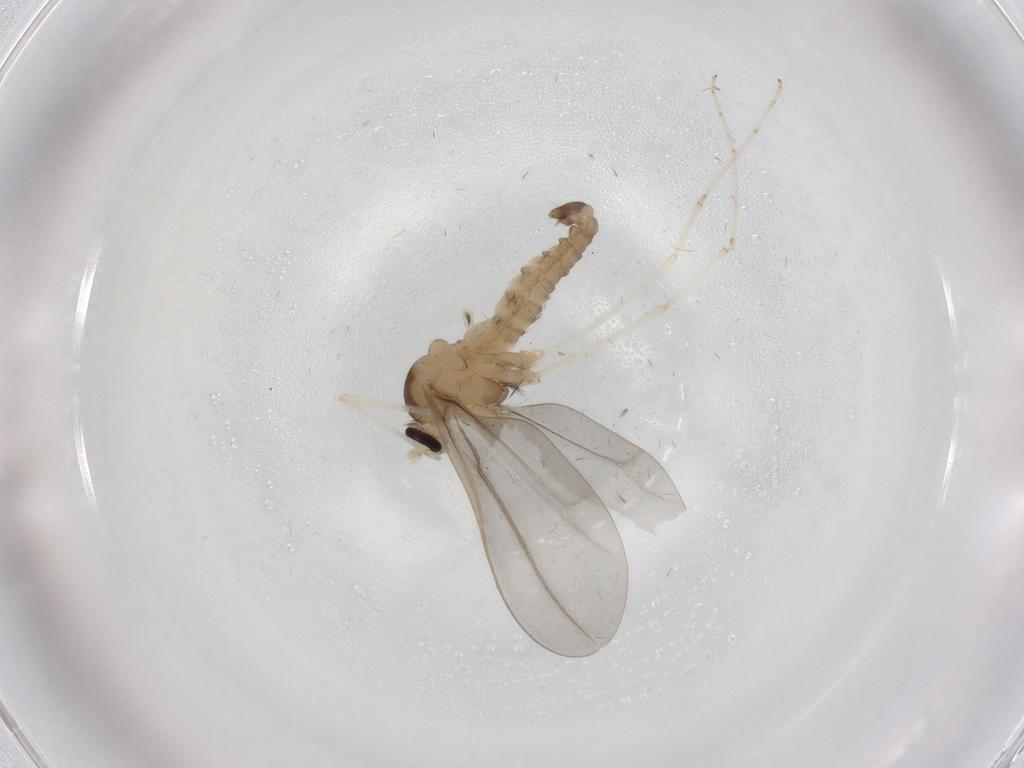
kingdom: Animalia
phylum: Arthropoda
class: Insecta
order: Diptera
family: Cecidomyiidae
